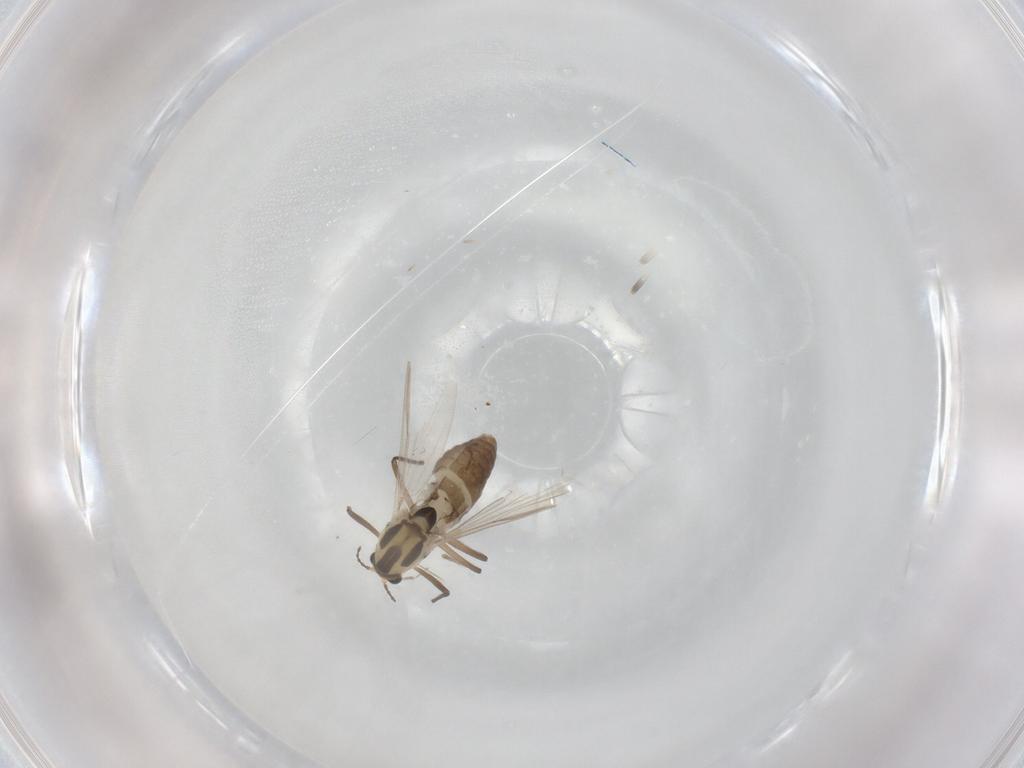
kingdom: Animalia
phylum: Arthropoda
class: Insecta
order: Diptera
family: Chironomidae
